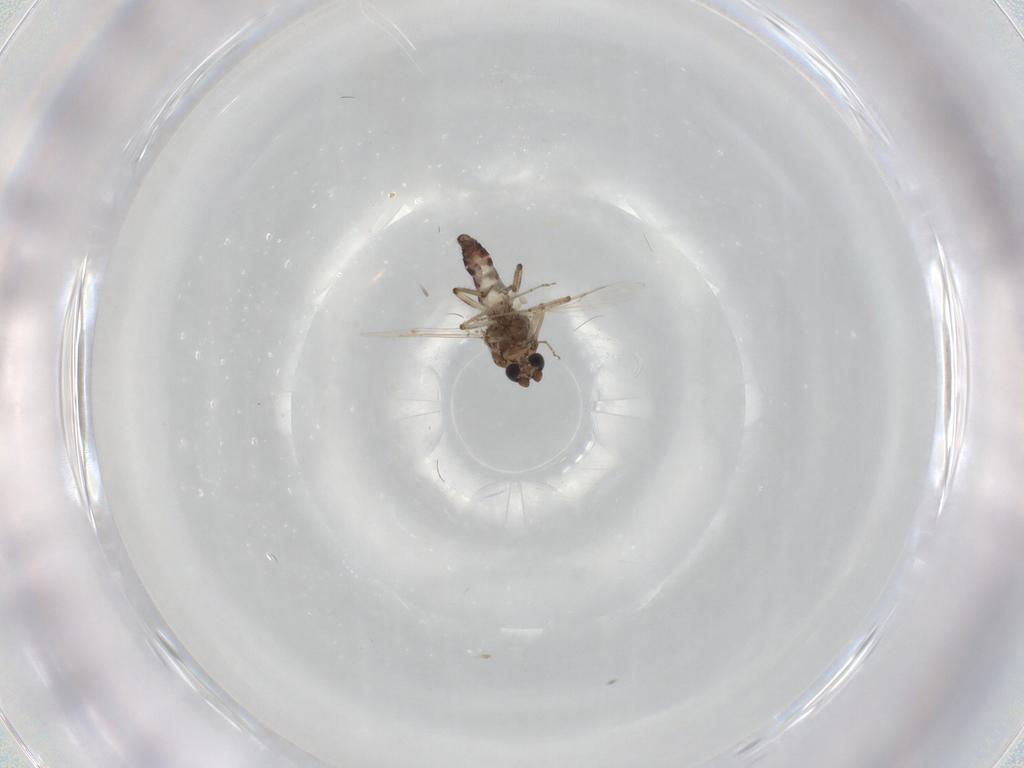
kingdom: Animalia
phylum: Arthropoda
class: Insecta
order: Diptera
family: Ceratopogonidae
